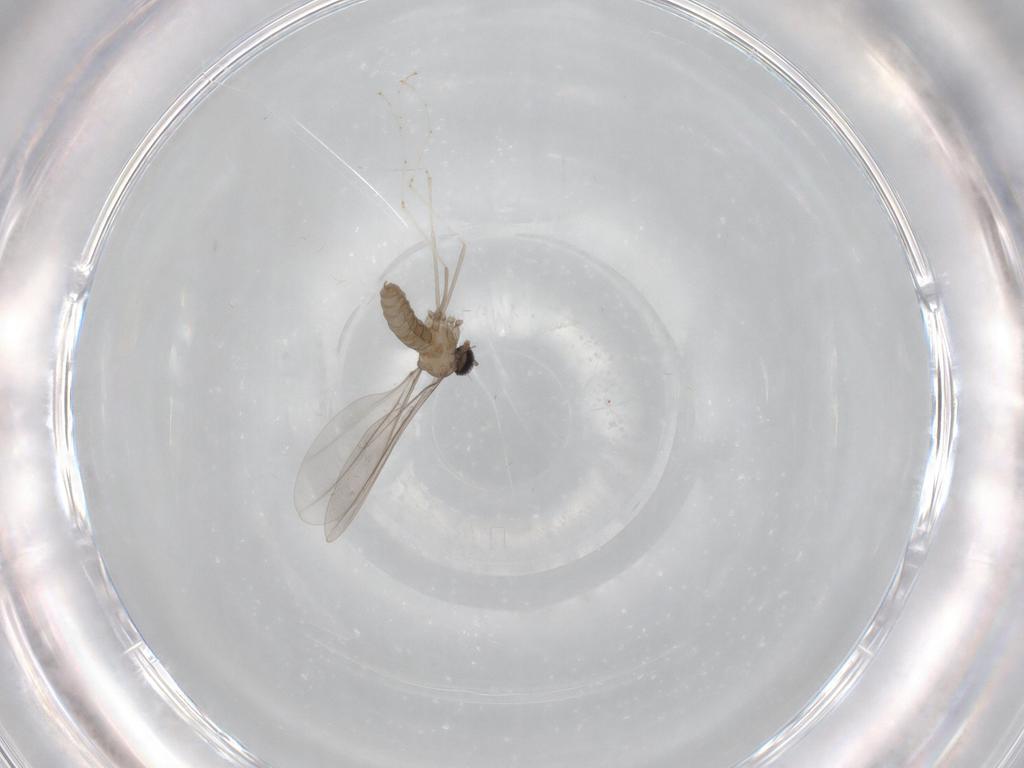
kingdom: Animalia
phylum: Arthropoda
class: Insecta
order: Diptera
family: Cecidomyiidae
